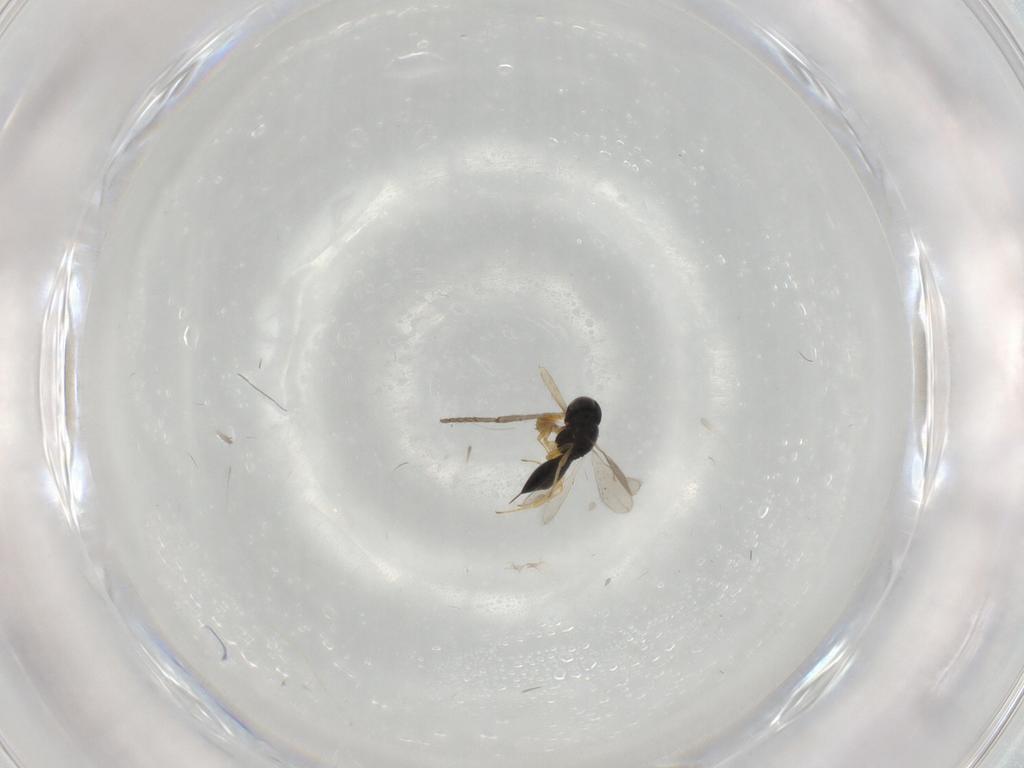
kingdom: Animalia
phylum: Arthropoda
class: Insecta
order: Hymenoptera
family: Scelionidae
